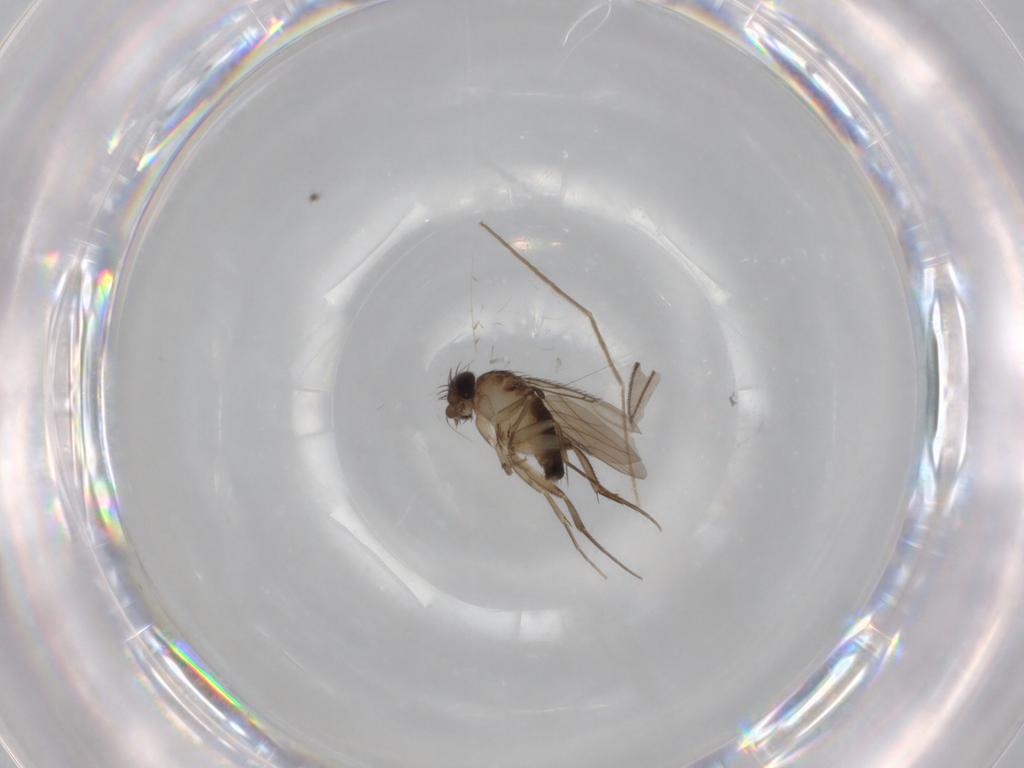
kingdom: Animalia
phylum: Arthropoda
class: Insecta
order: Diptera
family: Phoridae
